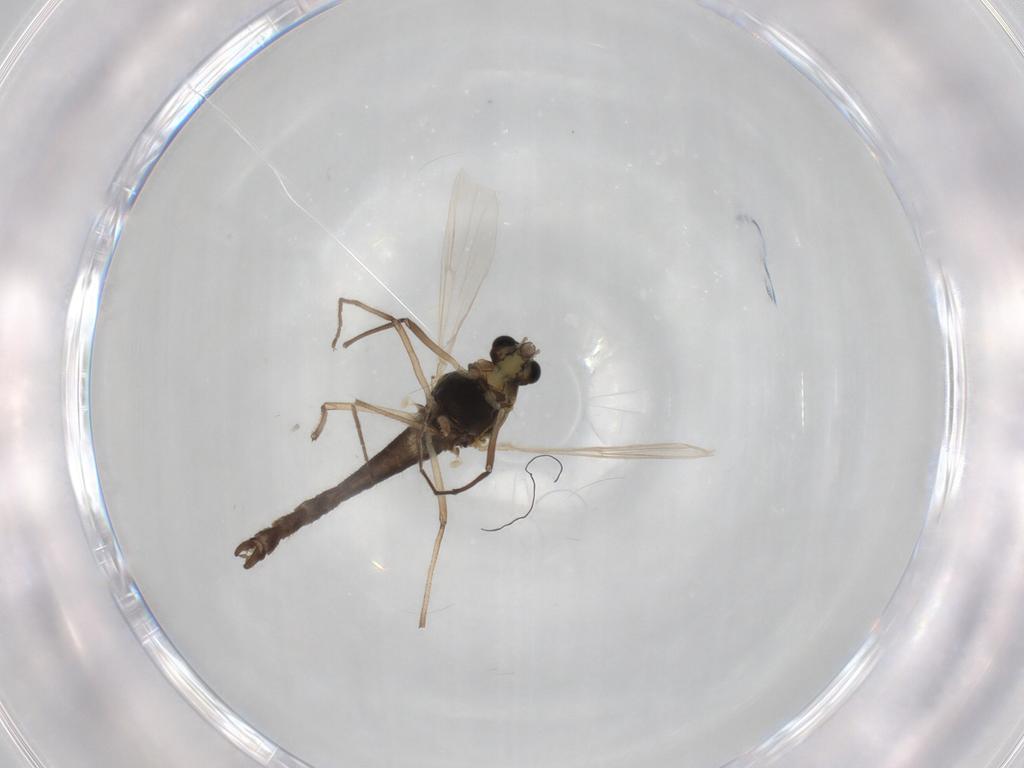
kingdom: Animalia
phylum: Arthropoda
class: Insecta
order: Diptera
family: Chironomidae
